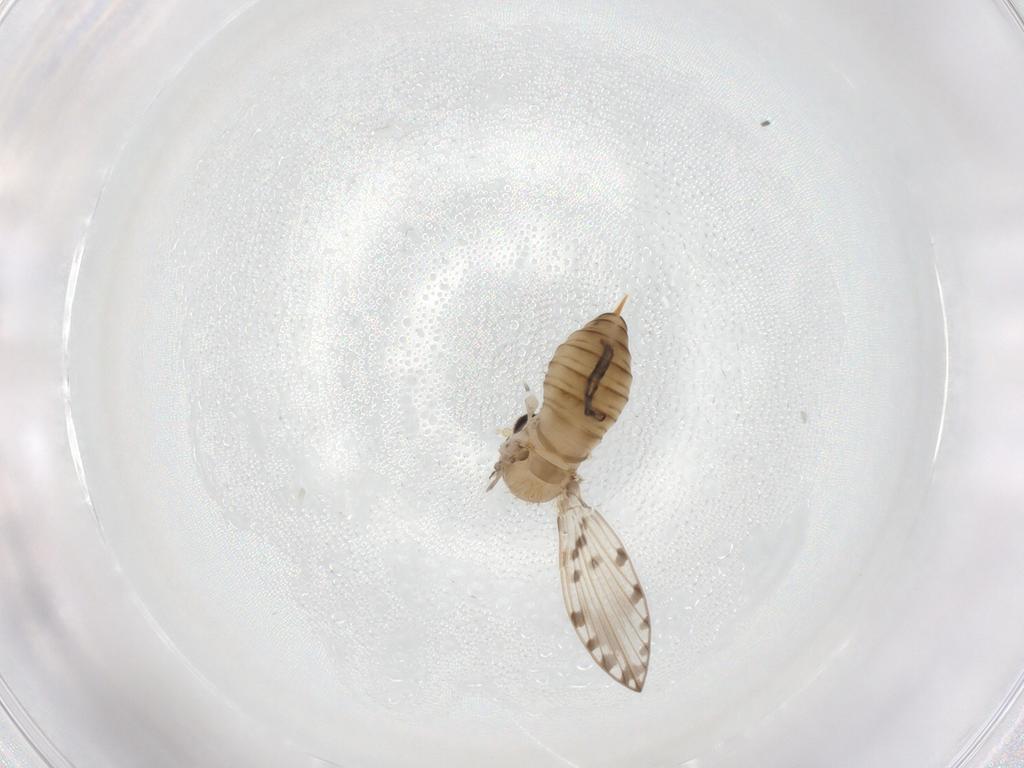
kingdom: Animalia
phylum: Arthropoda
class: Insecta
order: Diptera
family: Psychodidae
